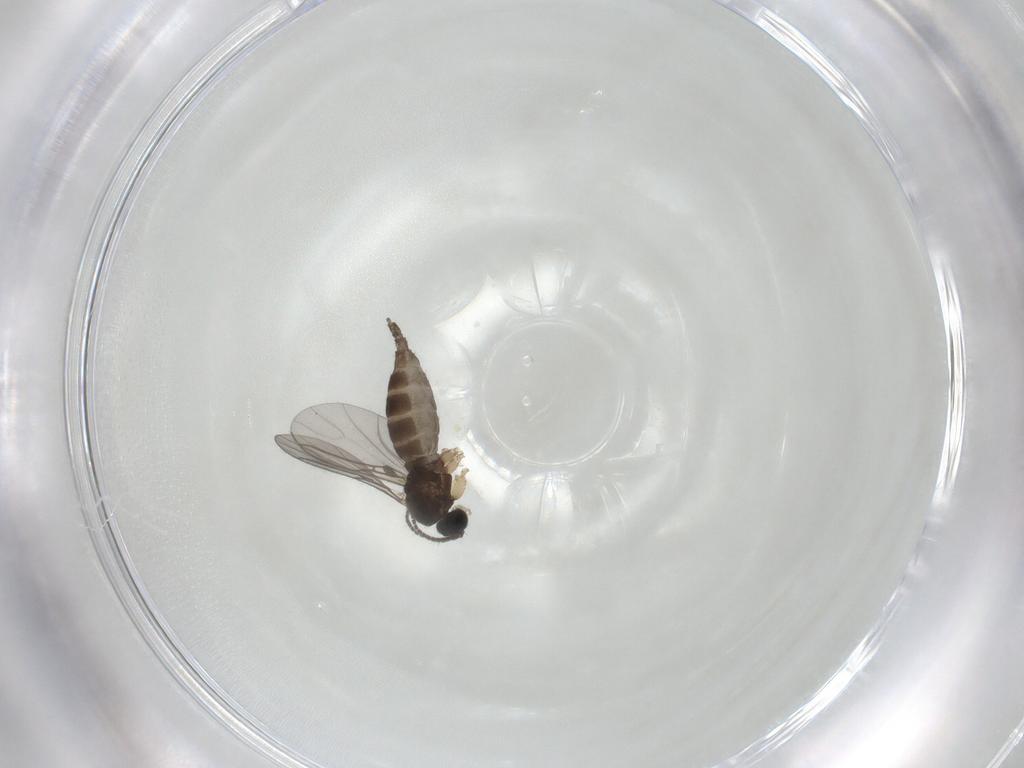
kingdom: Animalia
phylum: Arthropoda
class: Insecta
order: Diptera
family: Sciaridae
